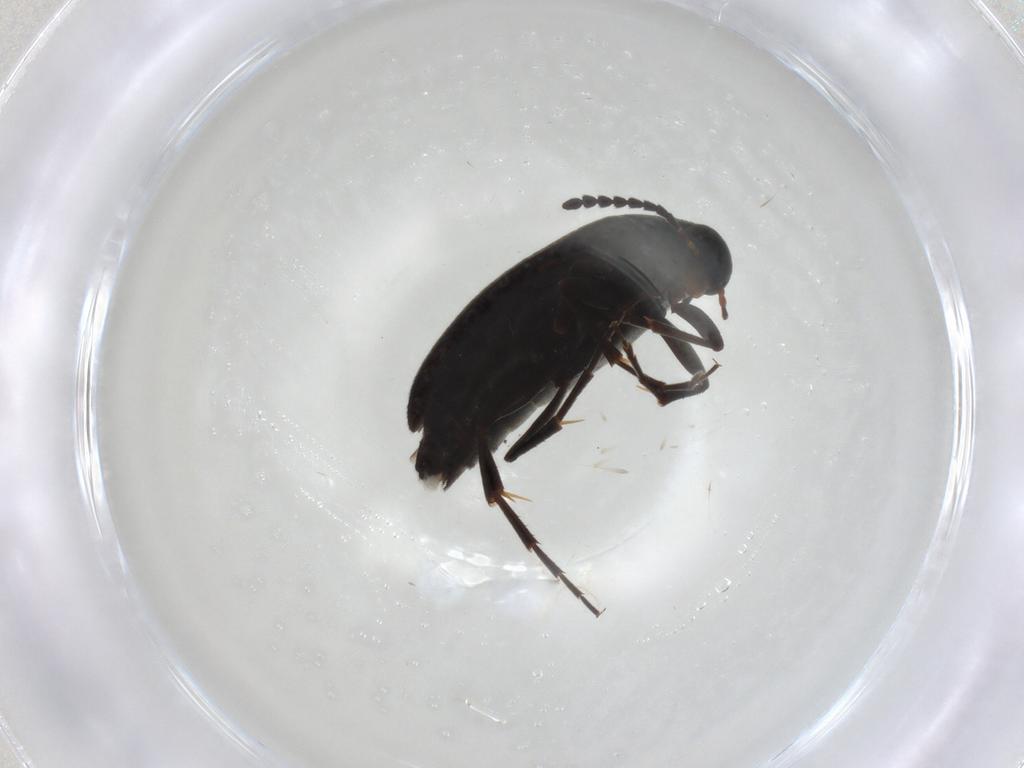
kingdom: Animalia
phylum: Arthropoda
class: Insecta
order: Coleoptera
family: Scraptiidae
